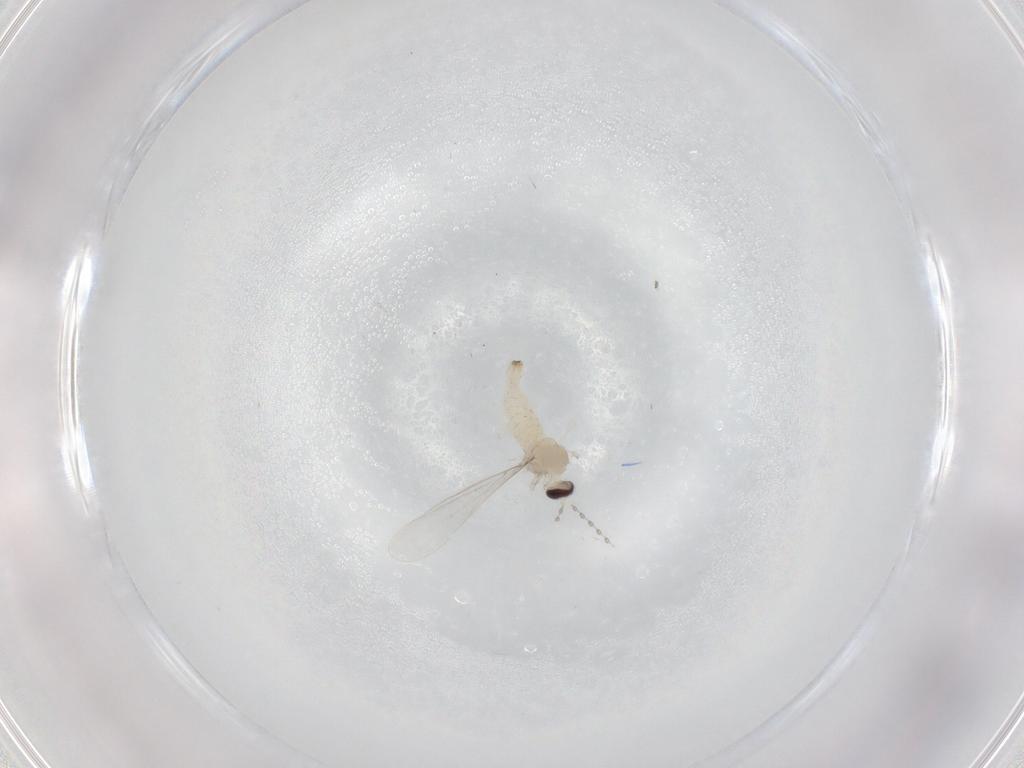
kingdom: Animalia
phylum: Arthropoda
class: Insecta
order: Diptera
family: Cecidomyiidae
